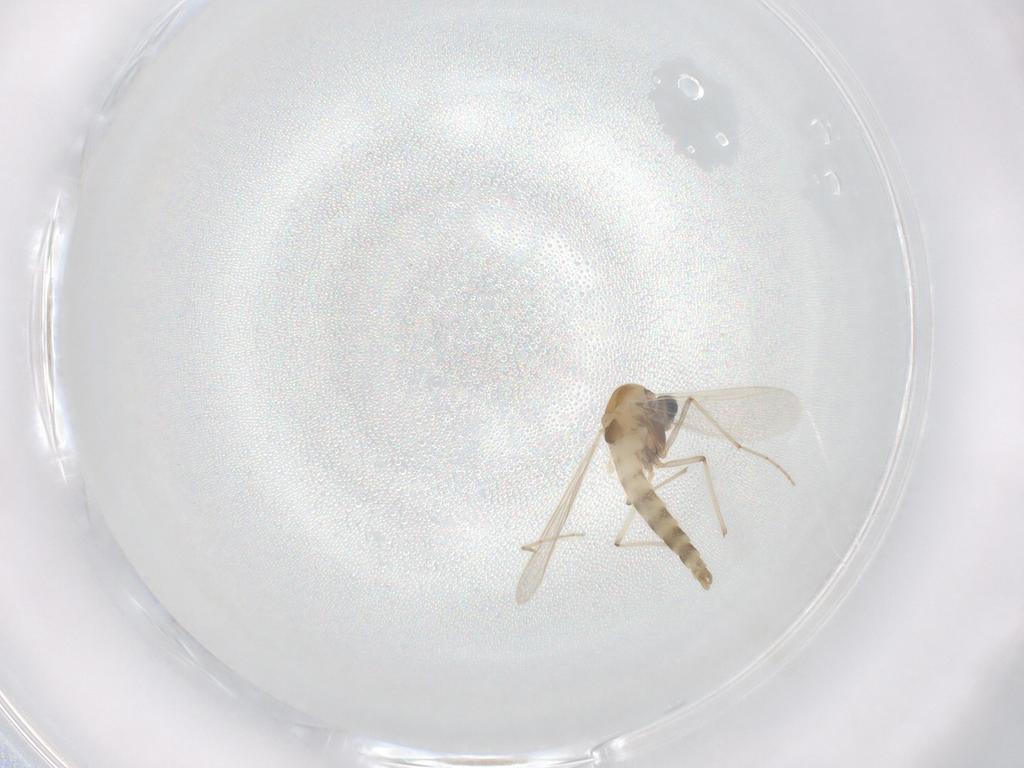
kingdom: Animalia
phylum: Arthropoda
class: Insecta
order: Diptera
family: Chironomidae
